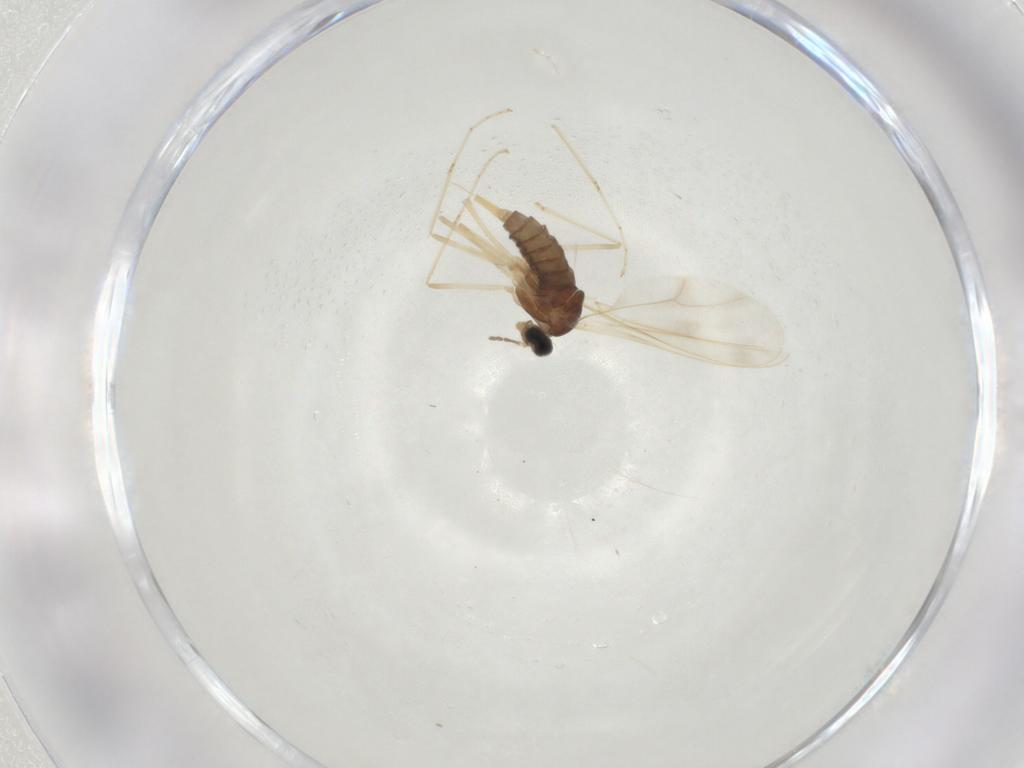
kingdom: Animalia
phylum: Arthropoda
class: Insecta
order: Diptera
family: Cecidomyiidae
